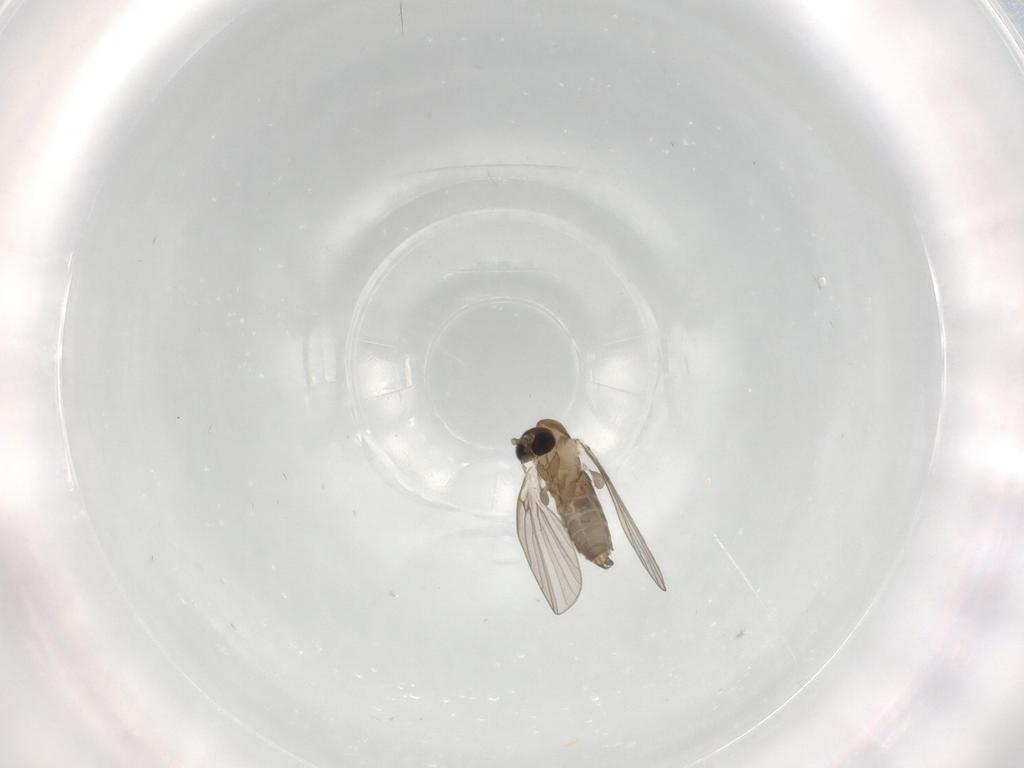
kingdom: Animalia
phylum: Arthropoda
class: Insecta
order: Diptera
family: Psychodidae
